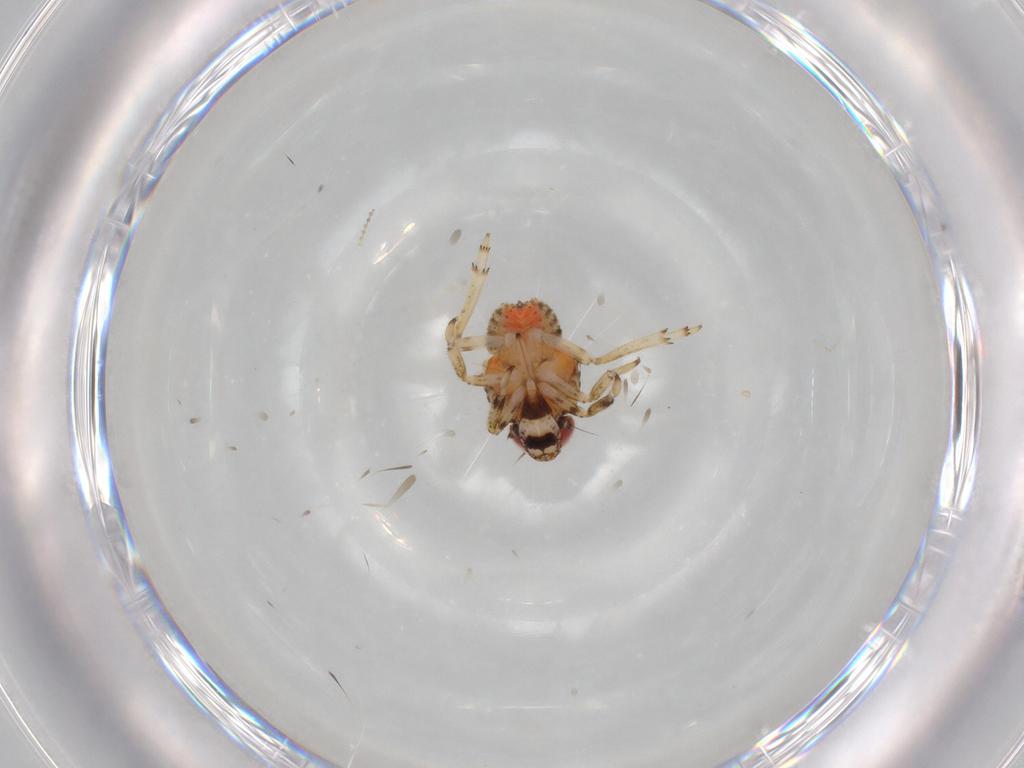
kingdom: Animalia
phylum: Arthropoda
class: Insecta
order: Hemiptera
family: Issidae
